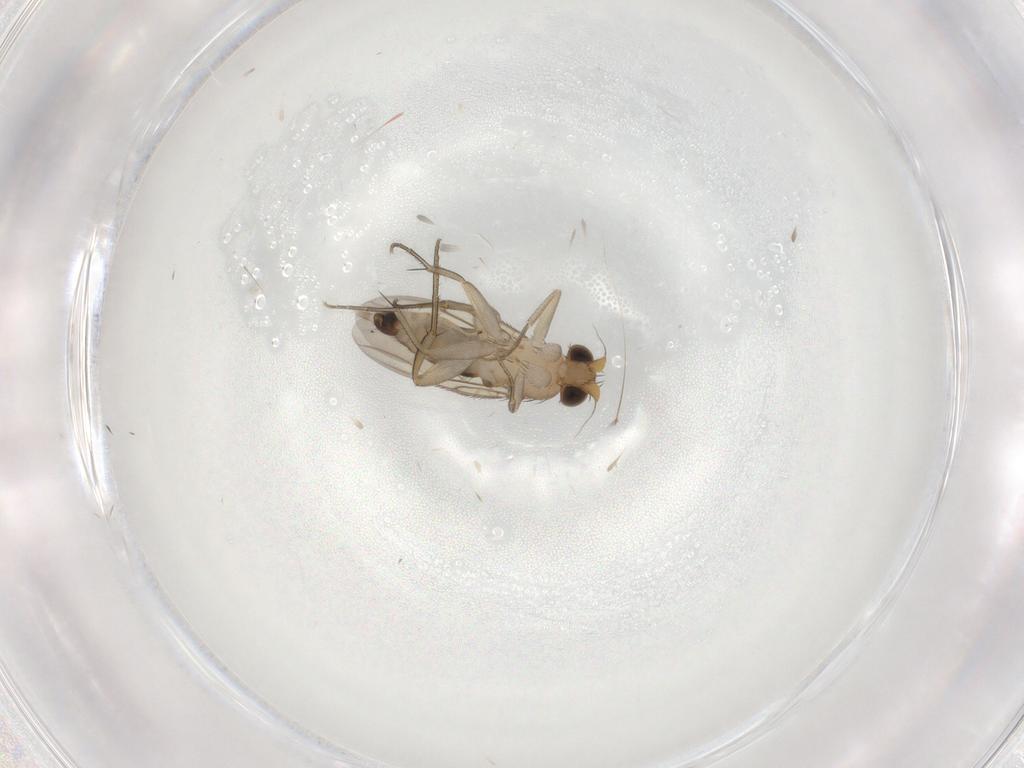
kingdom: Animalia
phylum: Arthropoda
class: Insecta
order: Diptera
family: Phoridae
